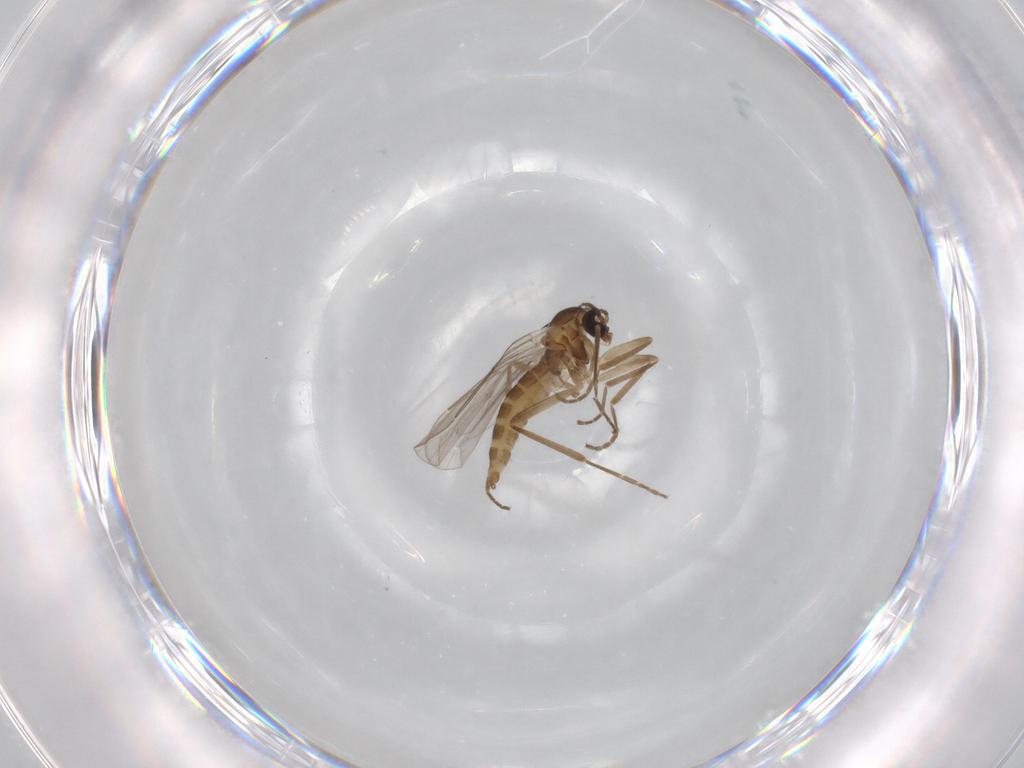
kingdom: Animalia
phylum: Arthropoda
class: Insecta
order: Diptera
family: Cecidomyiidae
